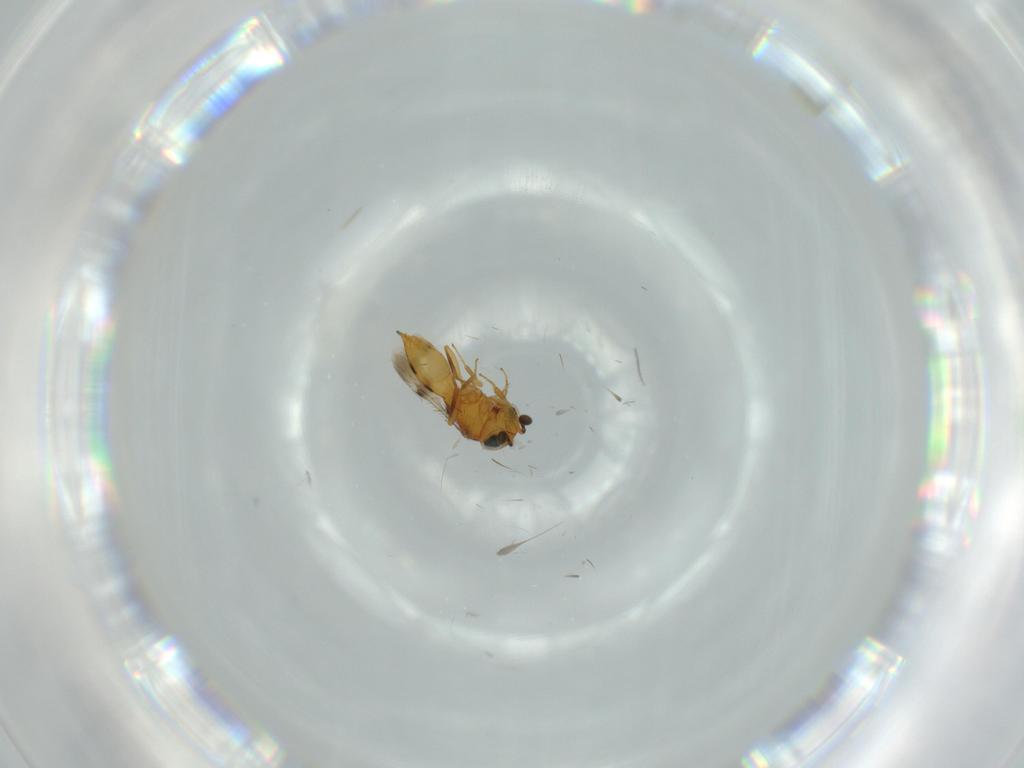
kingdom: Animalia
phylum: Arthropoda
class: Insecta
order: Hymenoptera
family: Scelionidae
